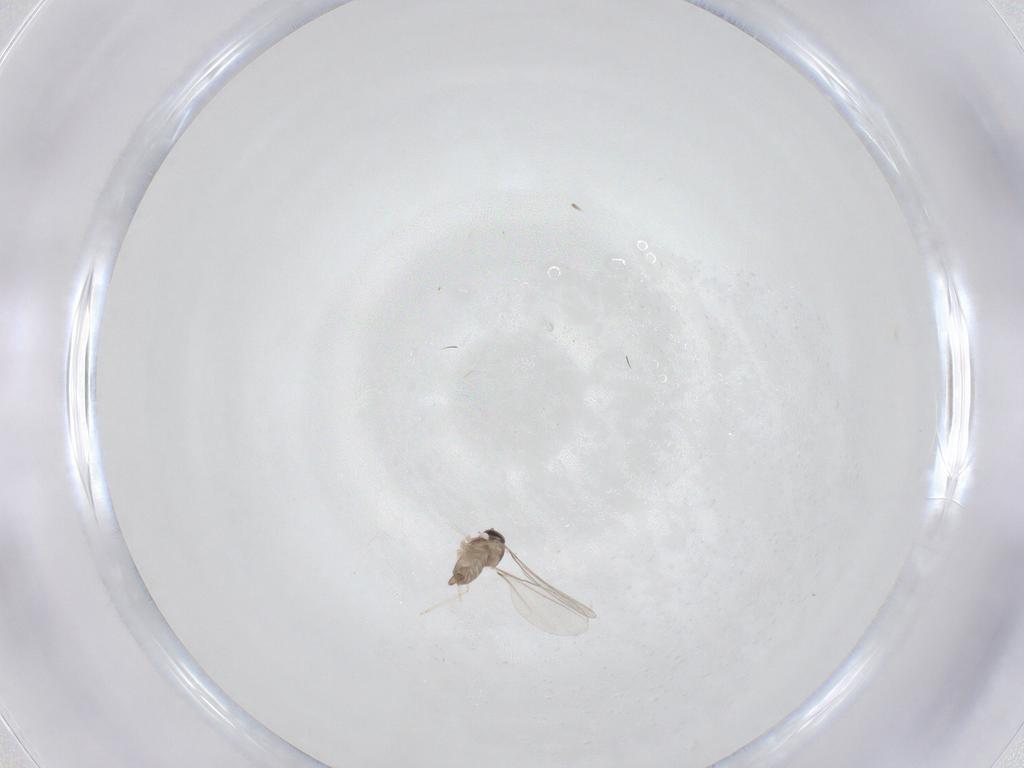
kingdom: Animalia
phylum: Arthropoda
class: Insecta
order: Diptera
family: Cecidomyiidae
